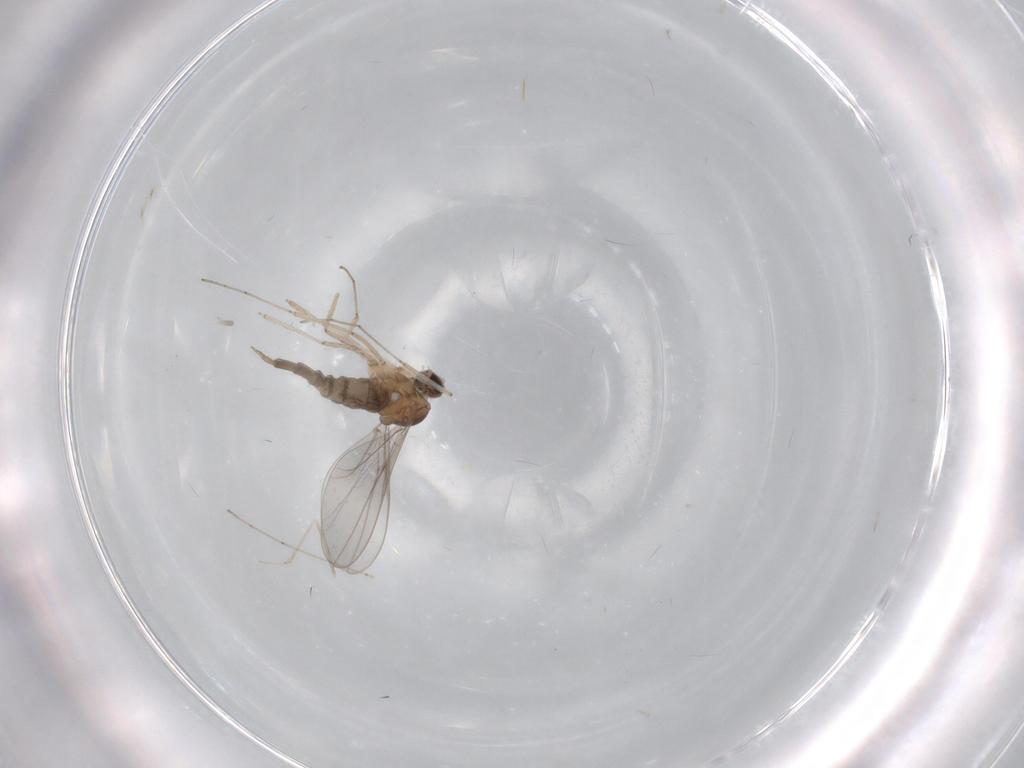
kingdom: Animalia
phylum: Arthropoda
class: Insecta
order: Diptera
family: Cecidomyiidae
